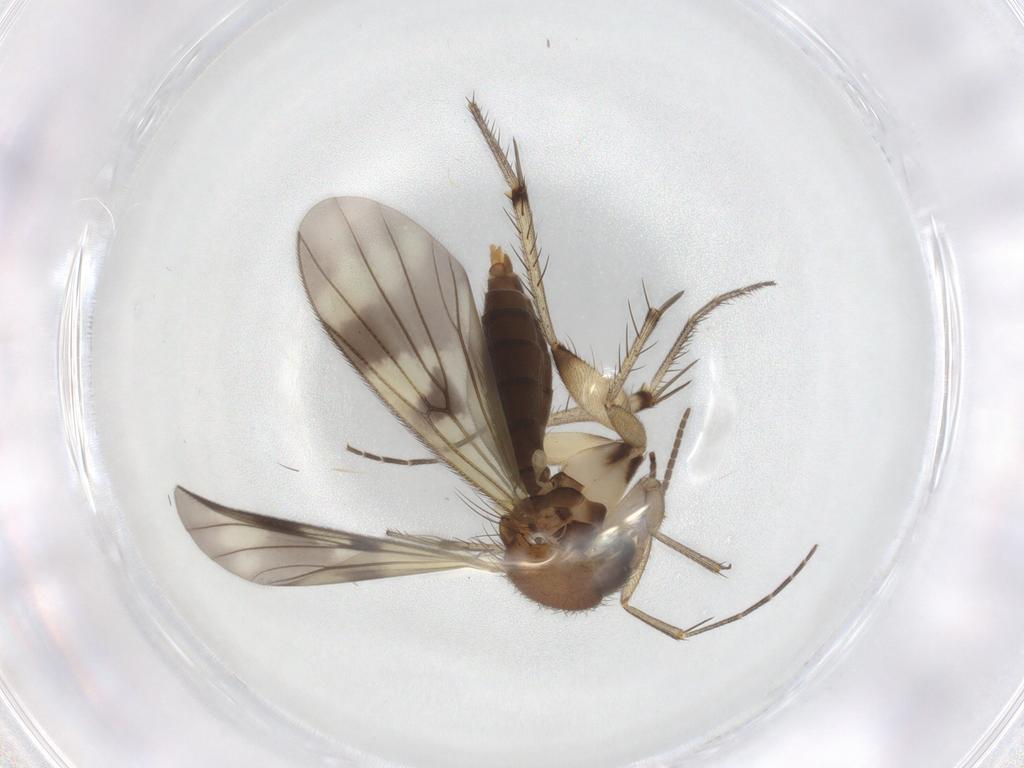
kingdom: Animalia
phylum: Arthropoda
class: Insecta
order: Diptera
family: Mycetophilidae
